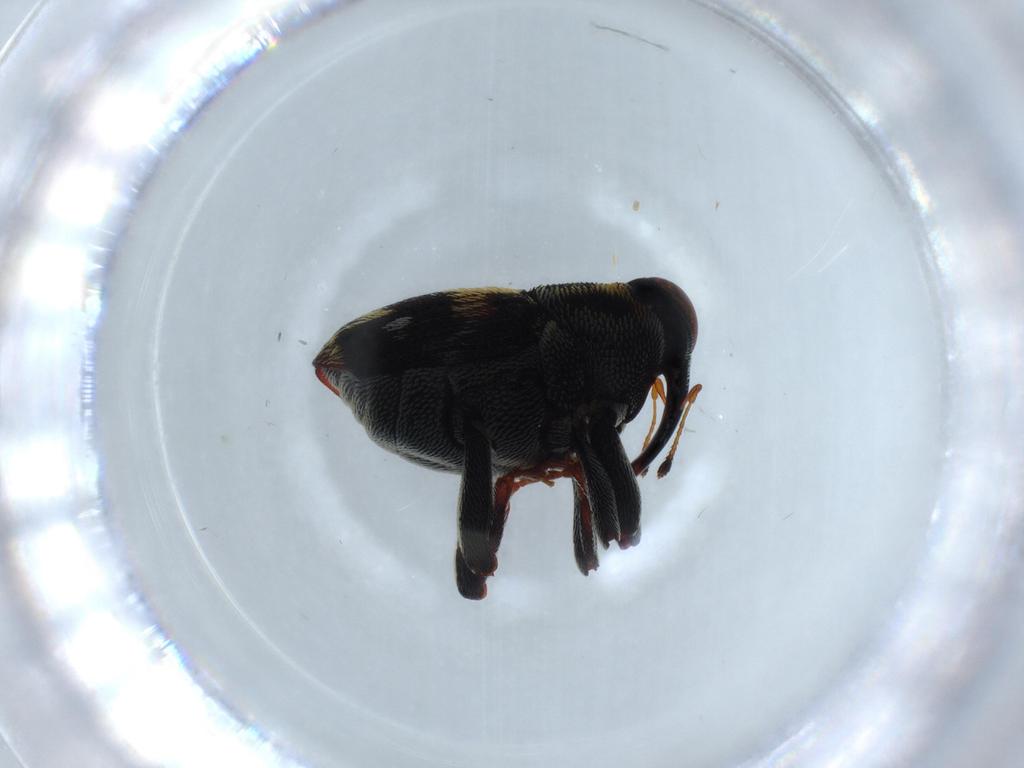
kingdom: Animalia
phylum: Arthropoda
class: Insecta
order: Coleoptera
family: Curculionidae
